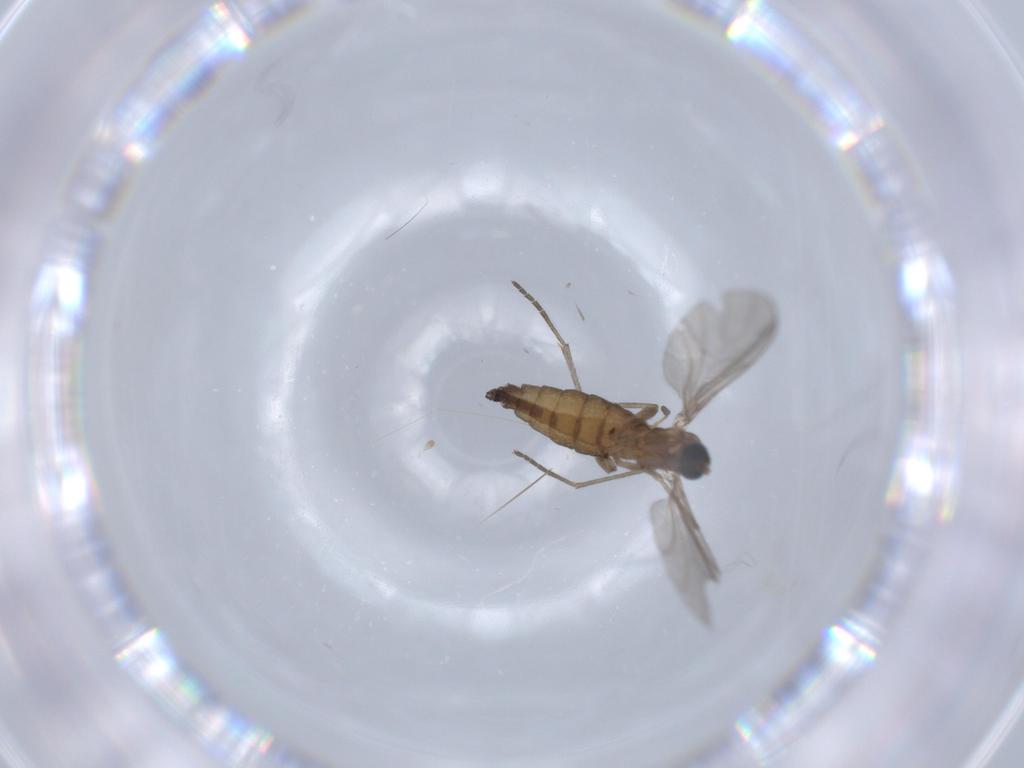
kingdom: Animalia
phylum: Arthropoda
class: Insecta
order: Diptera
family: Sciaridae
